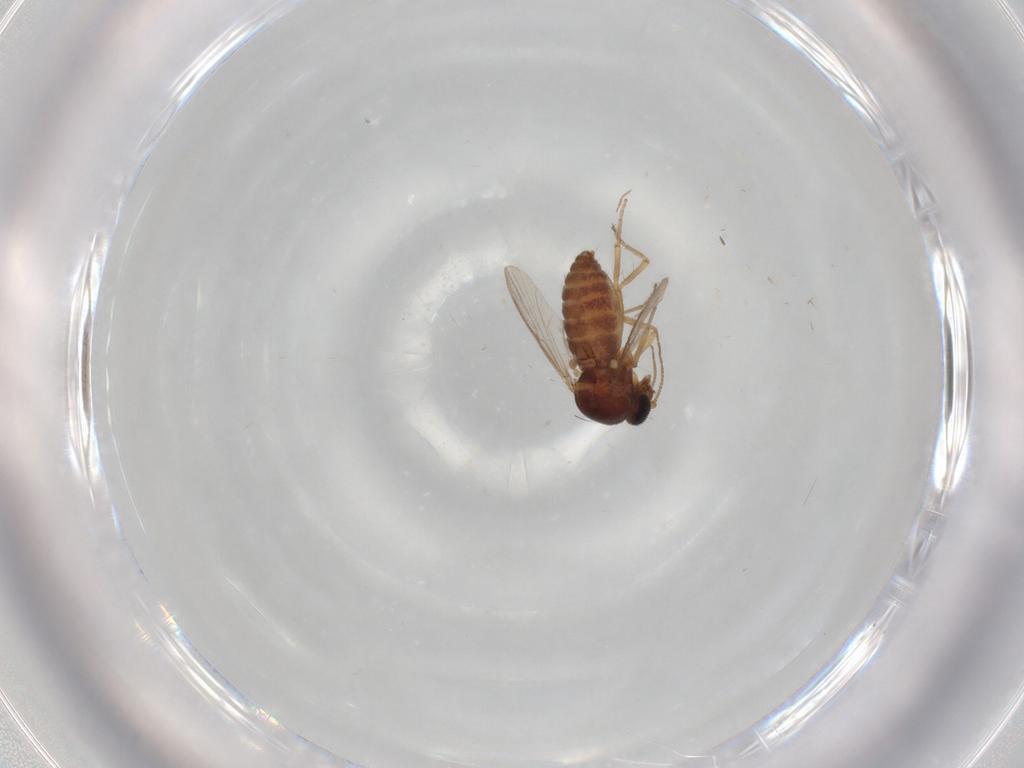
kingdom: Animalia
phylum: Arthropoda
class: Insecta
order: Diptera
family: Ceratopogonidae
